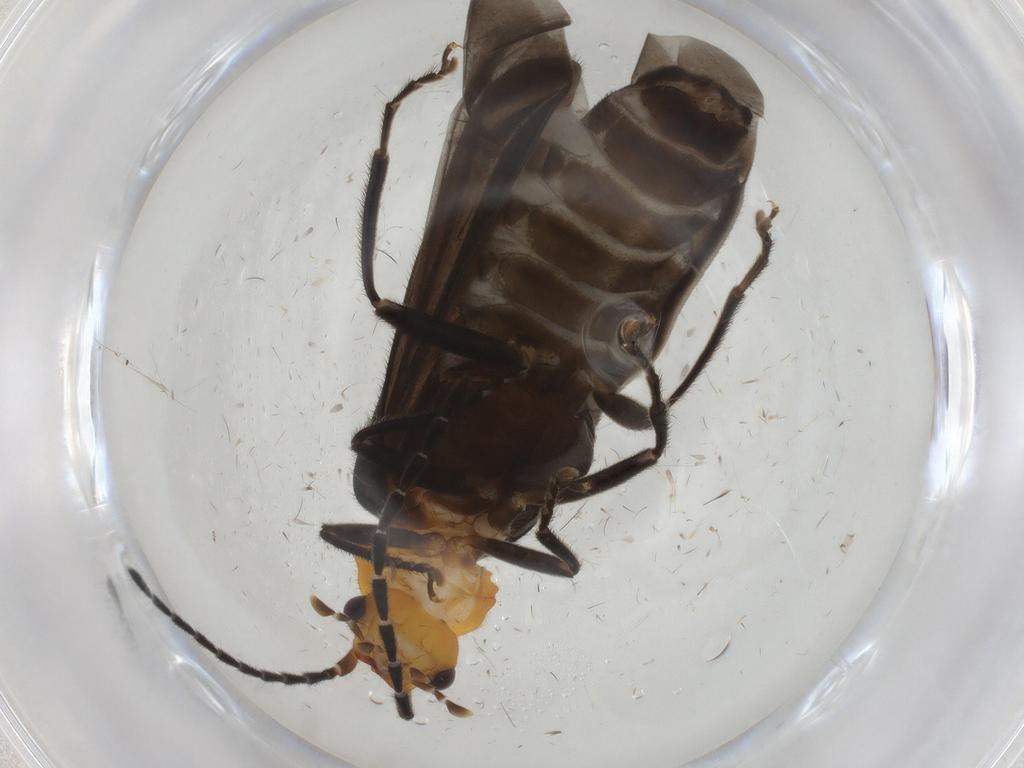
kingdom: Animalia
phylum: Arthropoda
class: Insecta
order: Coleoptera
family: Cantharidae
